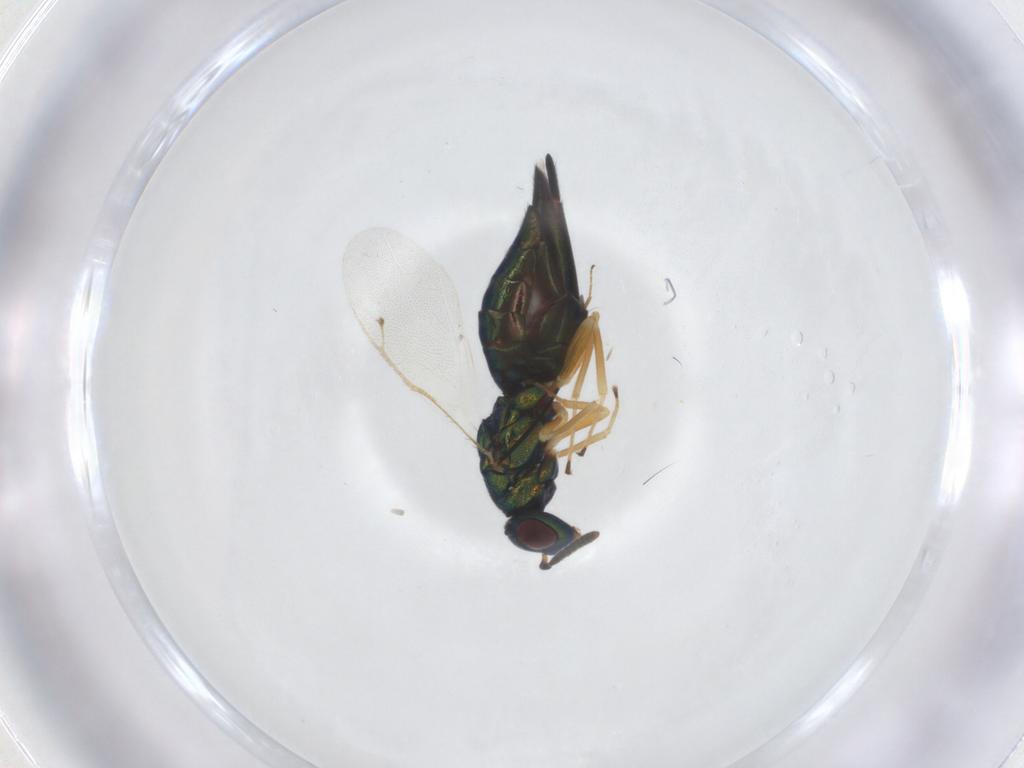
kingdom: Animalia
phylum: Arthropoda
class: Insecta
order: Hymenoptera
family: Pteromalidae
